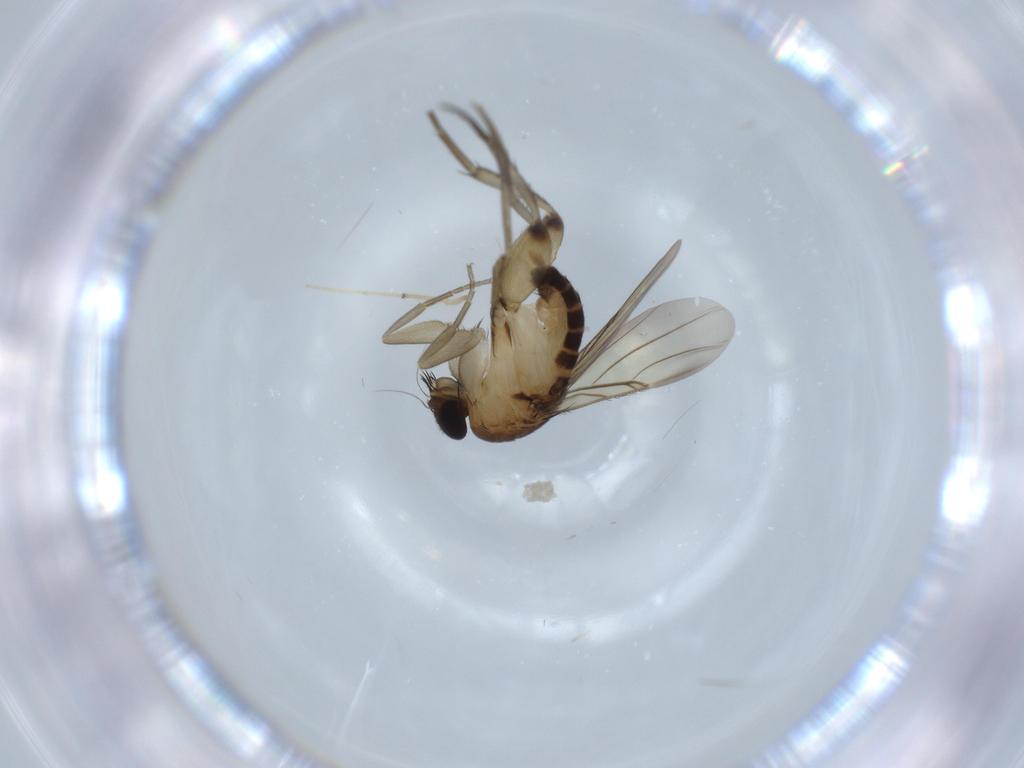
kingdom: Animalia
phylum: Arthropoda
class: Insecta
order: Diptera
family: Phoridae
